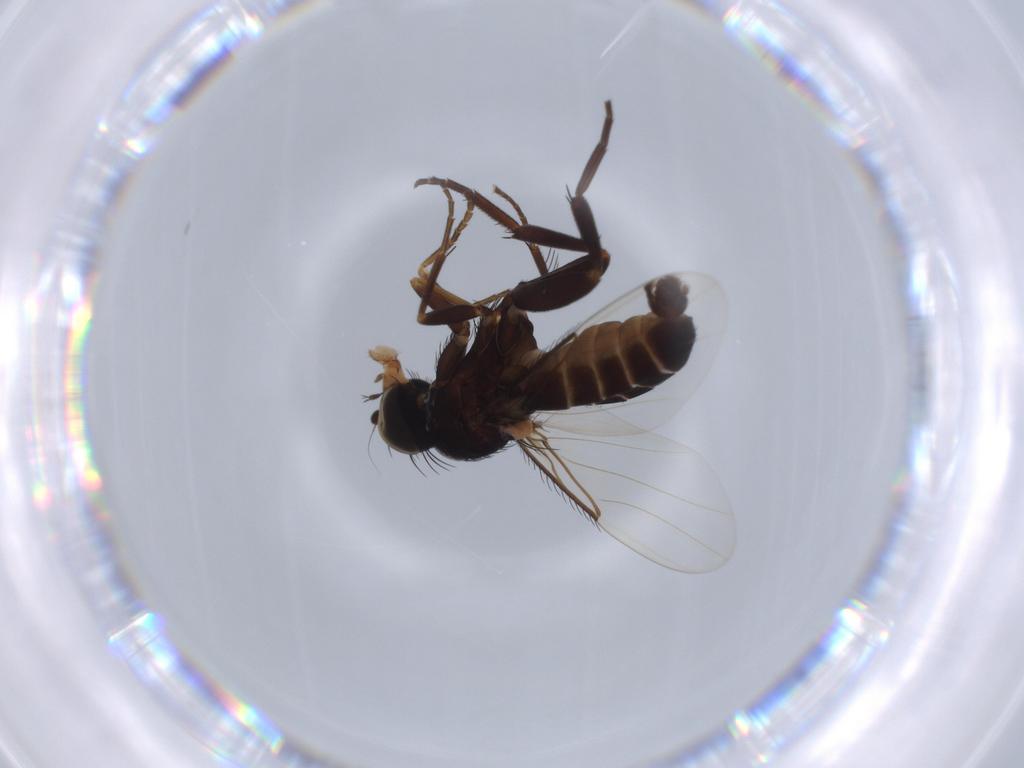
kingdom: Animalia
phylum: Arthropoda
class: Insecta
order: Diptera
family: Phoridae
